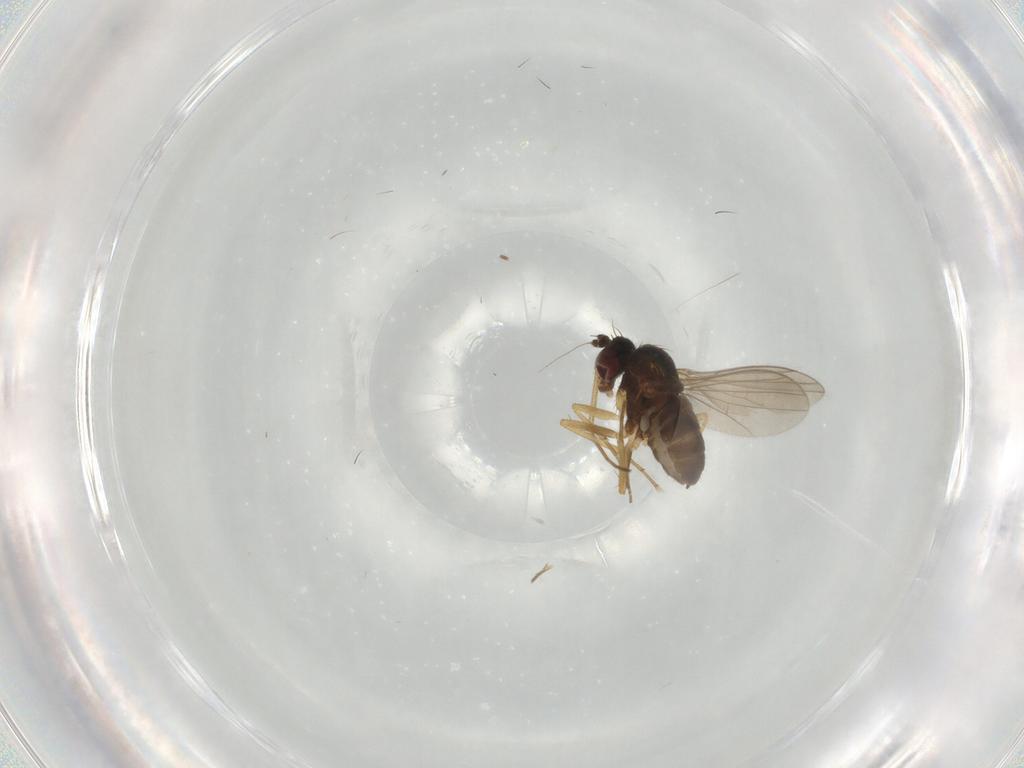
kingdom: Animalia
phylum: Arthropoda
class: Insecta
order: Diptera
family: Dolichopodidae
